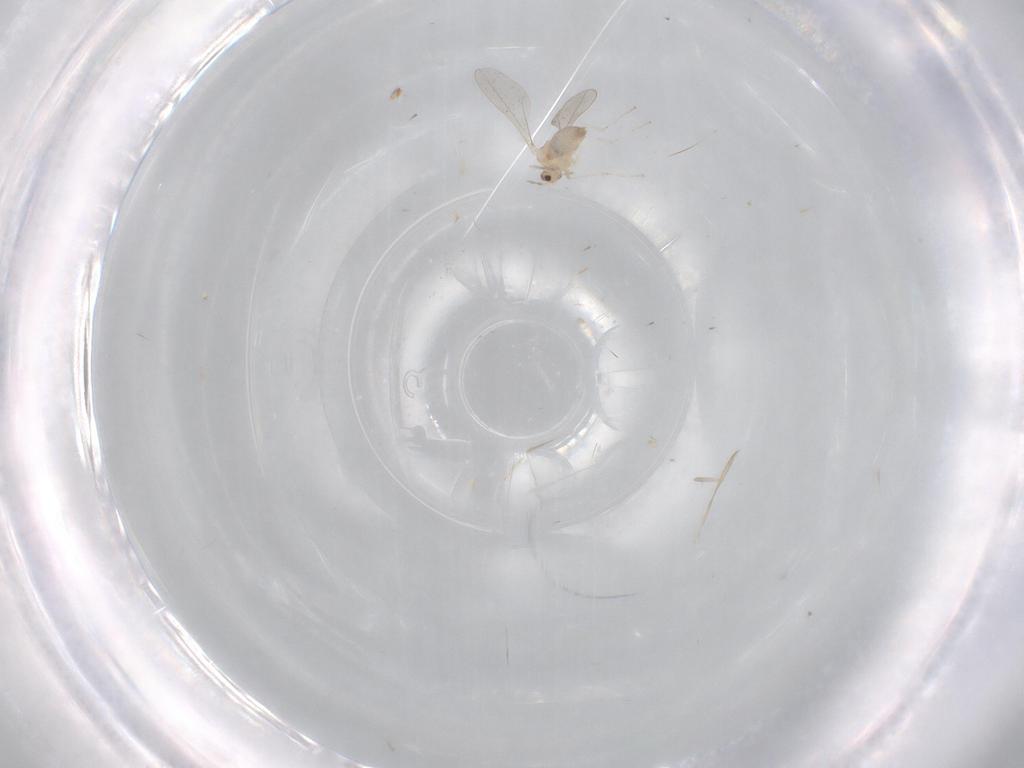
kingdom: Animalia
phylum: Arthropoda
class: Insecta
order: Diptera
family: Cecidomyiidae
